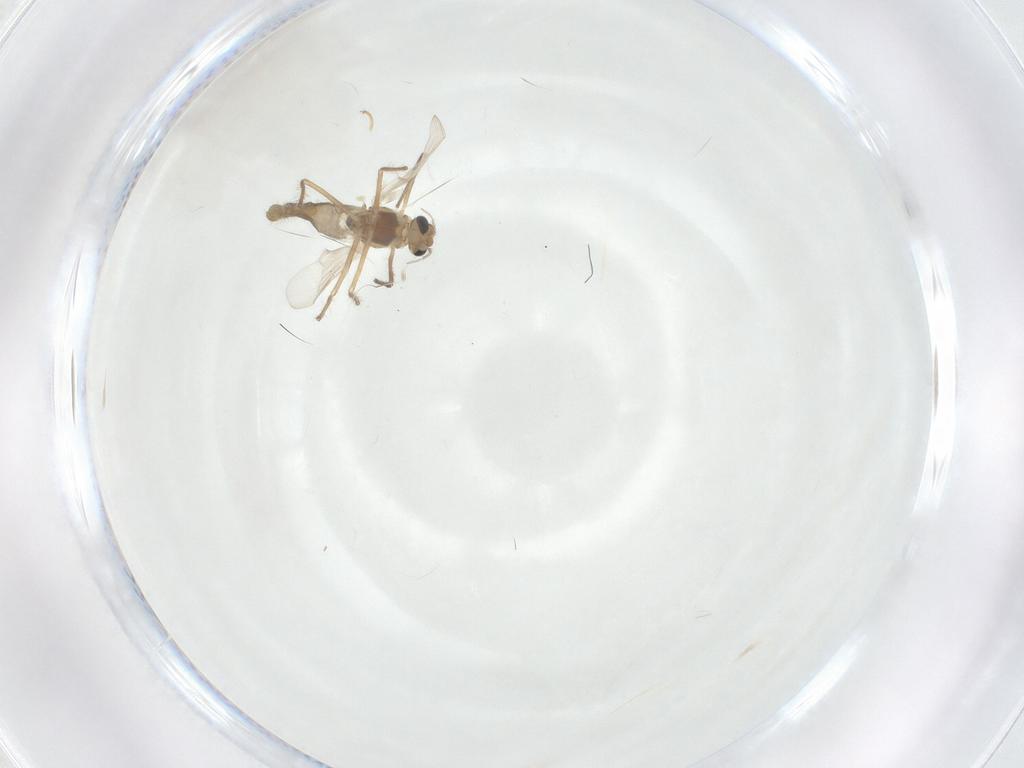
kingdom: Animalia
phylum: Arthropoda
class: Insecta
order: Diptera
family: Chironomidae
